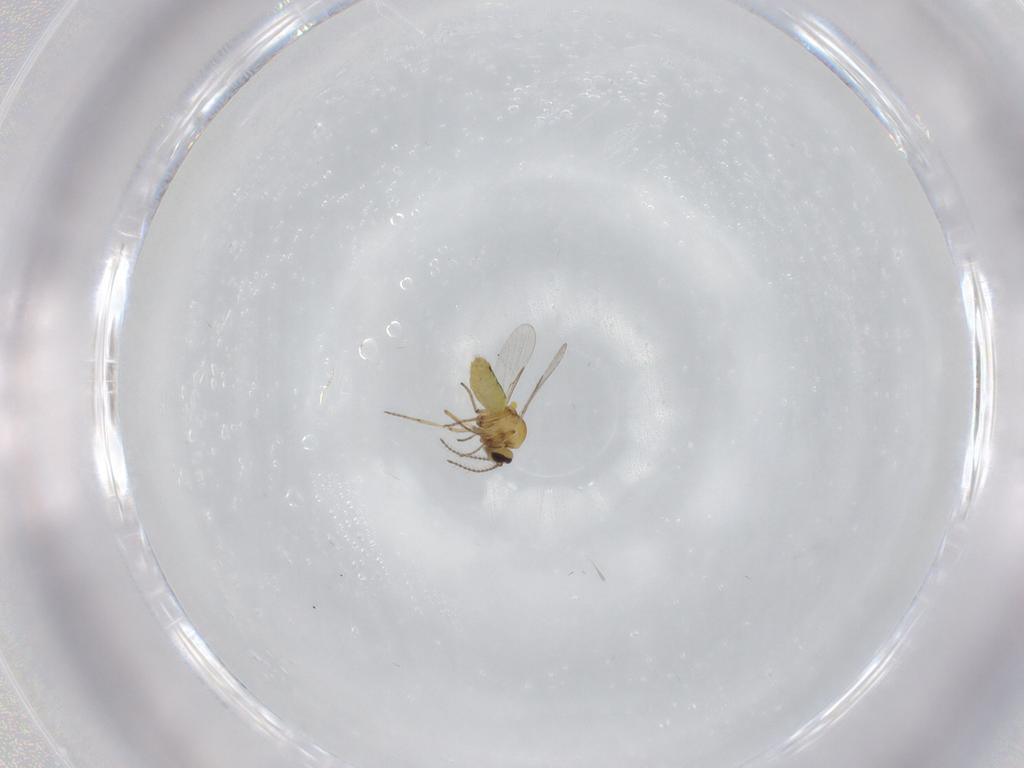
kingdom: Animalia
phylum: Arthropoda
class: Insecta
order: Diptera
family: Ceratopogonidae
